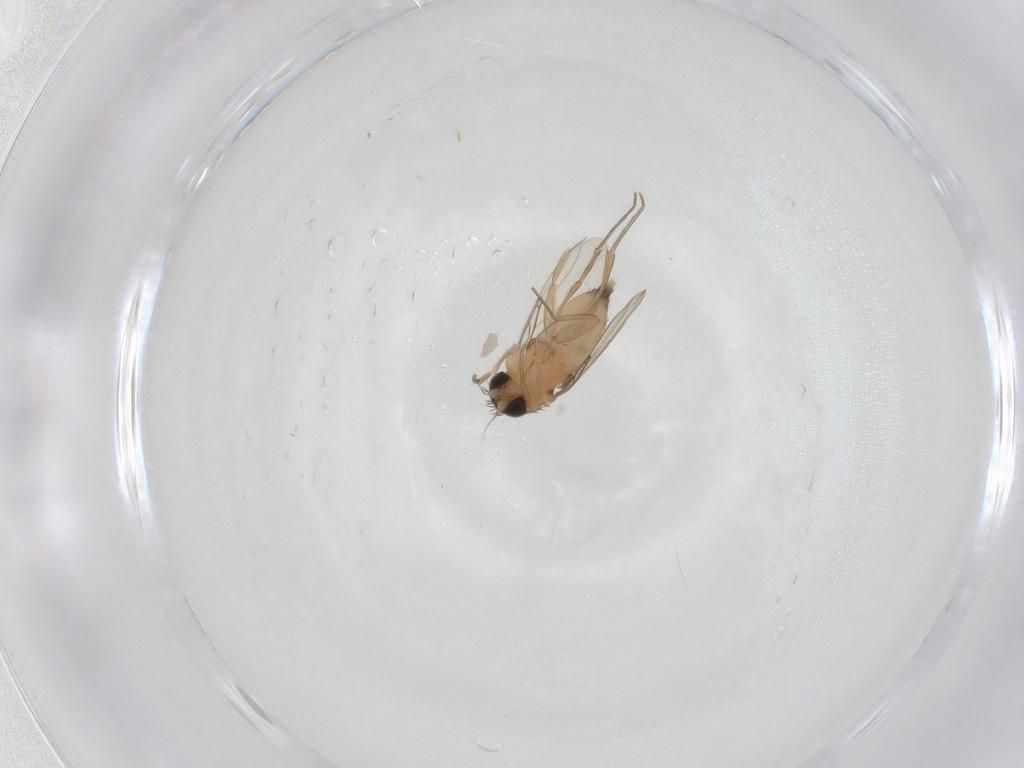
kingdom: Animalia
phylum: Arthropoda
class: Insecta
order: Diptera
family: Phoridae
